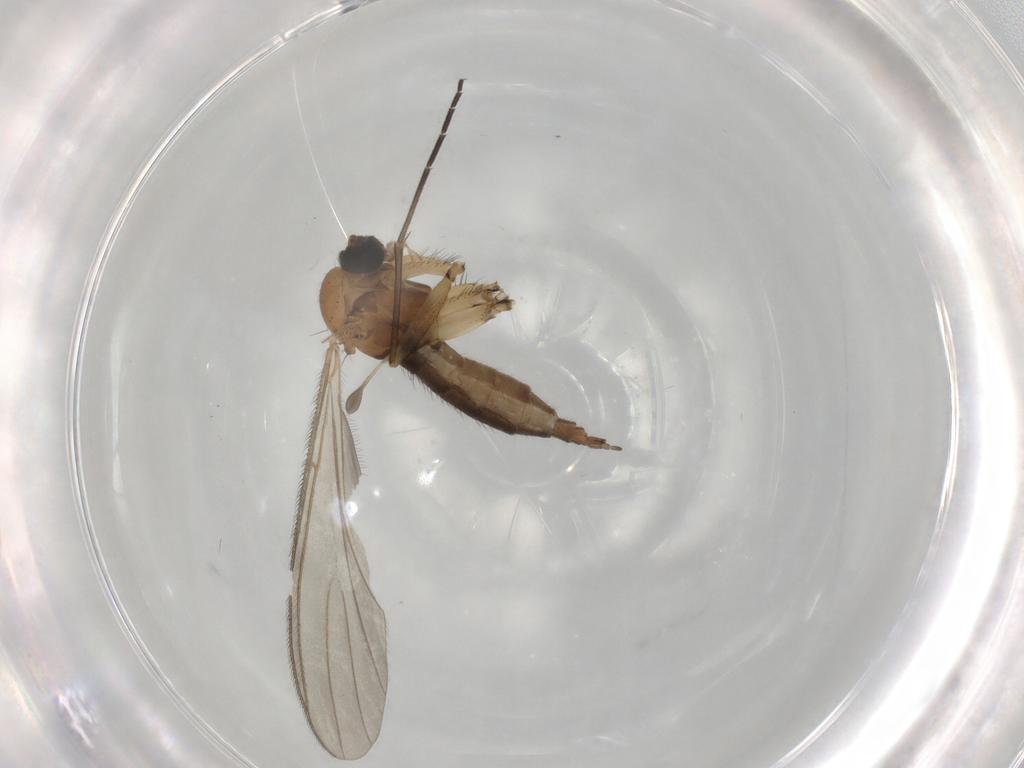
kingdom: Animalia
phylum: Arthropoda
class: Insecta
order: Diptera
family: Sciaridae
